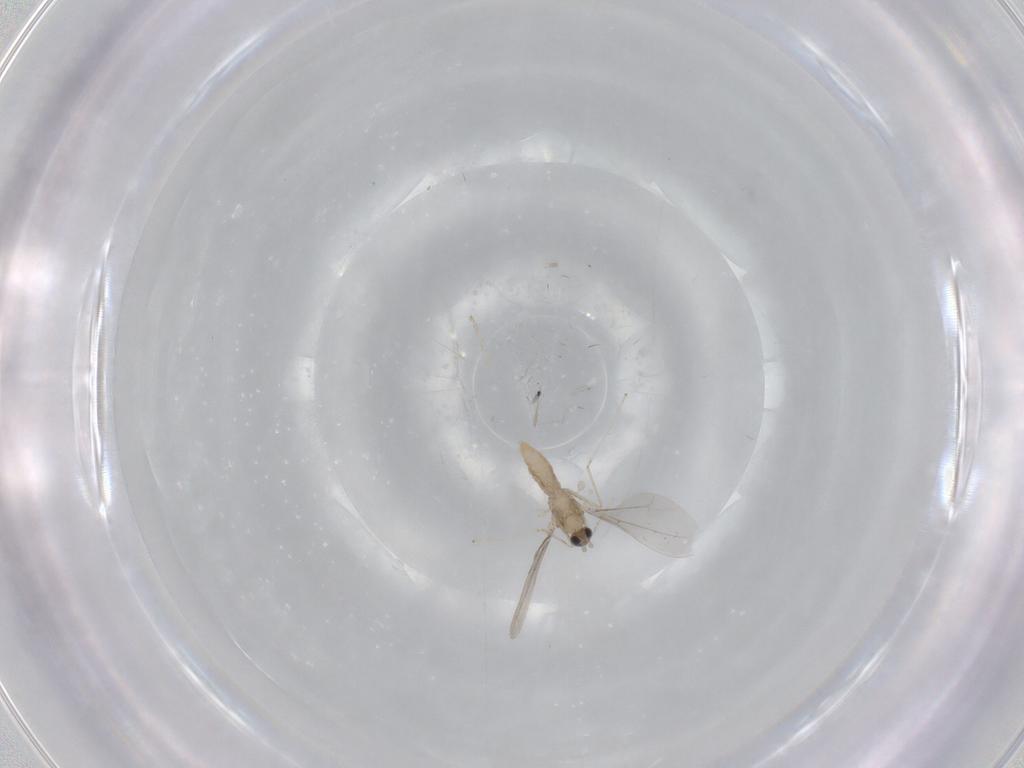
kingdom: Animalia
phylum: Arthropoda
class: Insecta
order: Diptera
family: Cecidomyiidae
